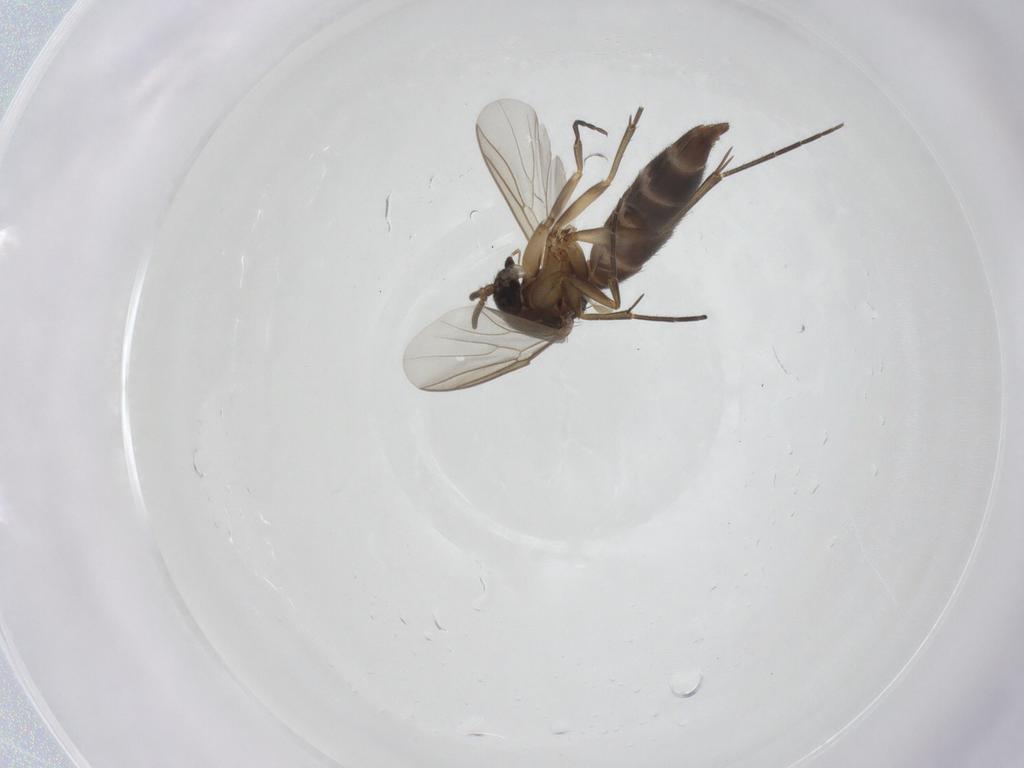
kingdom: Animalia
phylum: Arthropoda
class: Insecta
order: Diptera
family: Mycetophilidae
